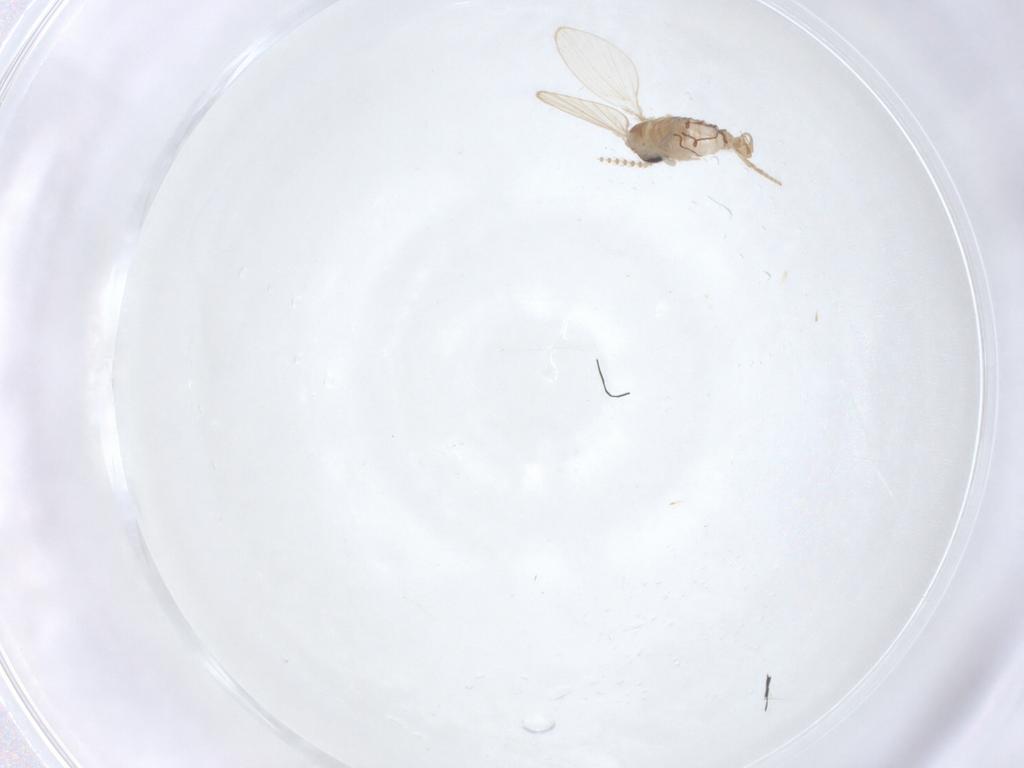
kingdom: Animalia
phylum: Arthropoda
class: Insecta
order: Diptera
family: Psychodidae
